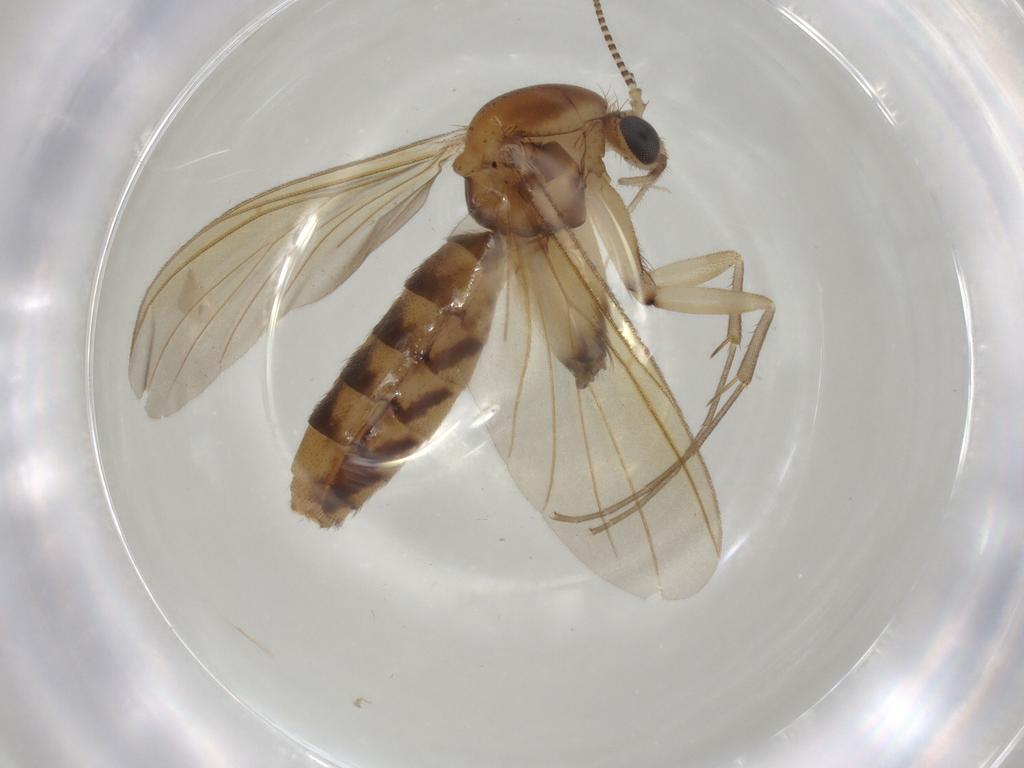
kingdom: Animalia
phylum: Arthropoda
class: Insecta
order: Diptera
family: Mycetophilidae
